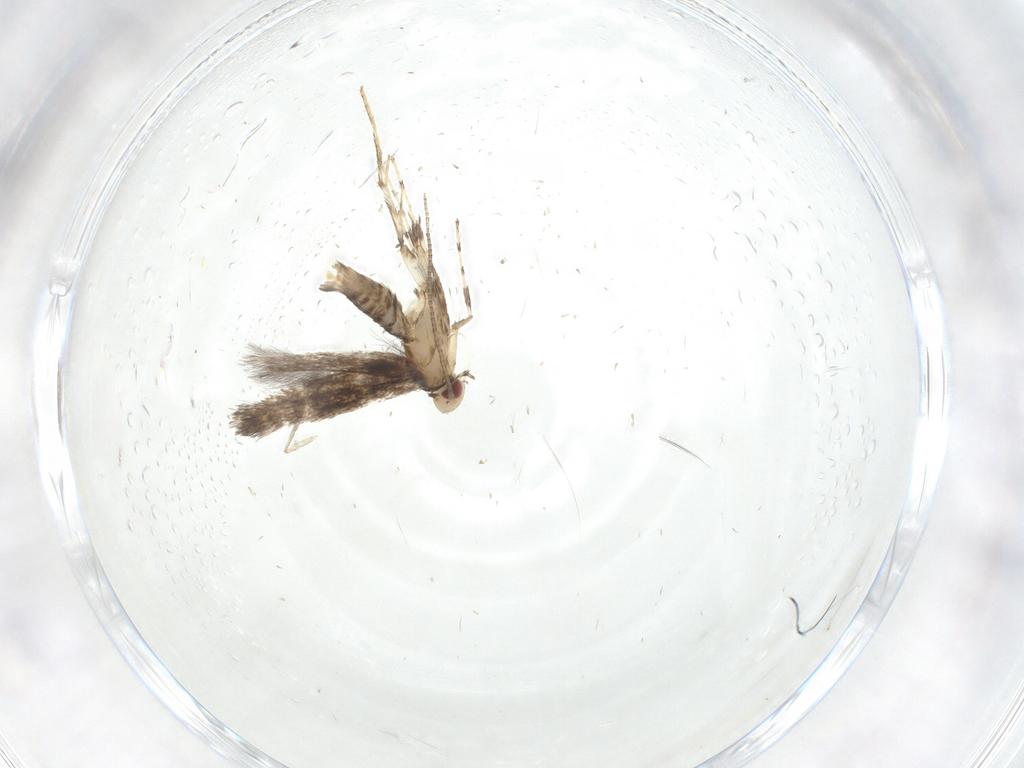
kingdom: Animalia
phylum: Arthropoda
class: Insecta
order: Lepidoptera
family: Gracillariidae
